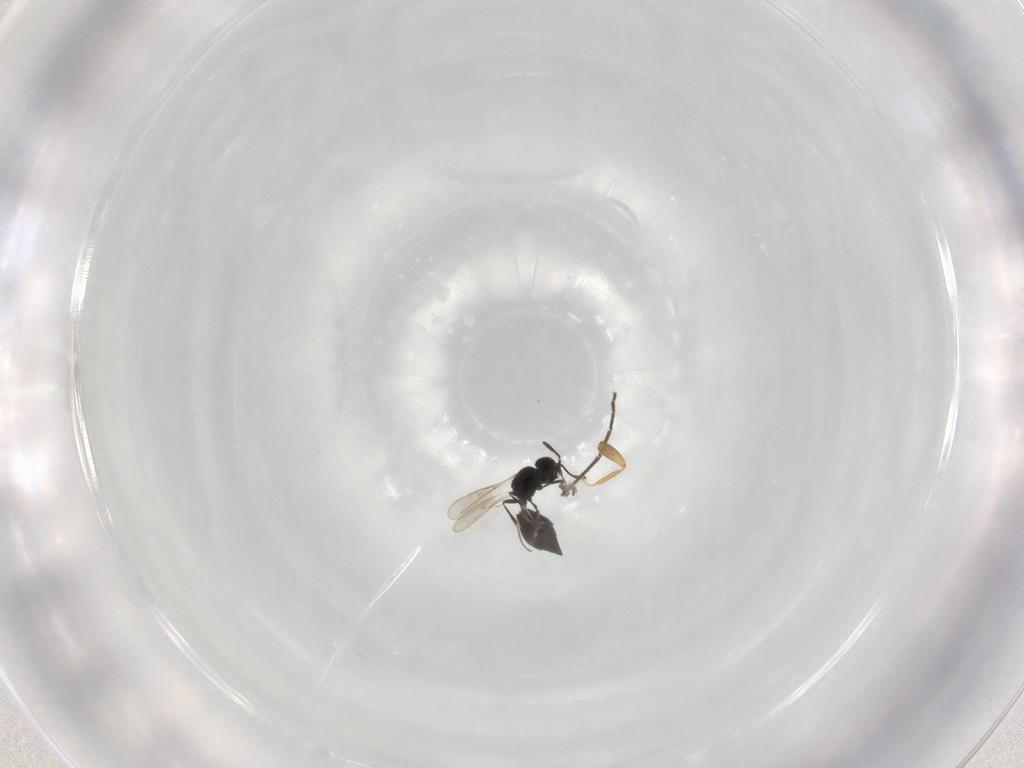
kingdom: Animalia
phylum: Arthropoda
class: Insecta
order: Hymenoptera
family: Scelionidae
